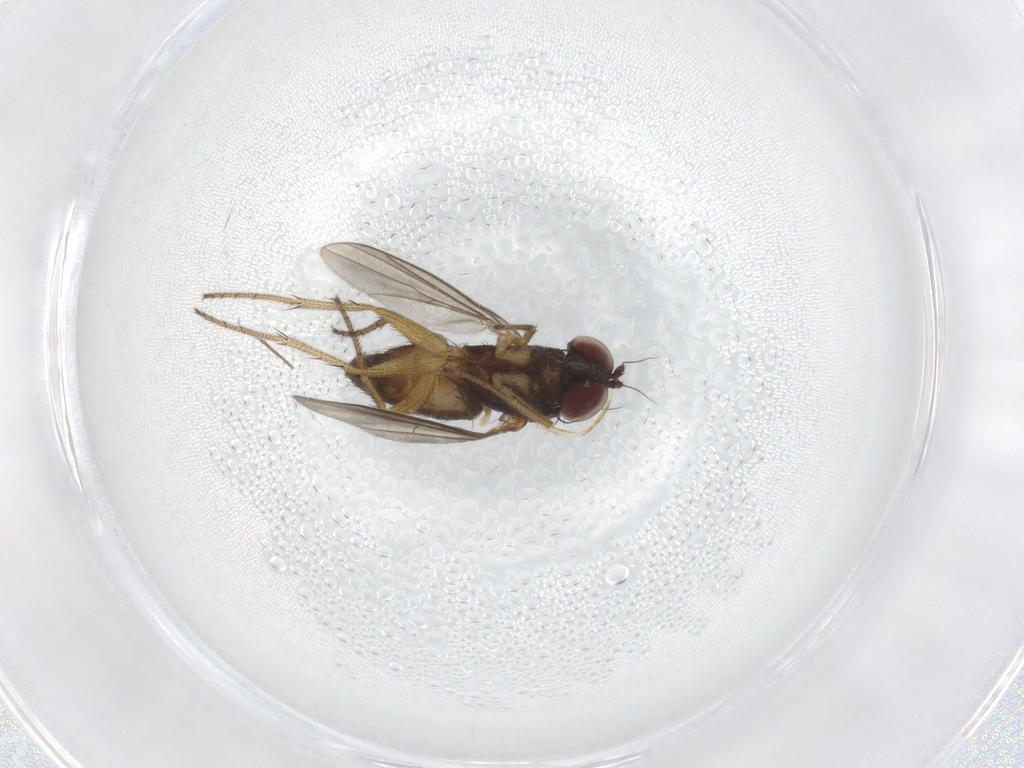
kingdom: Animalia
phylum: Arthropoda
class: Insecta
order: Diptera
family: Dolichopodidae
